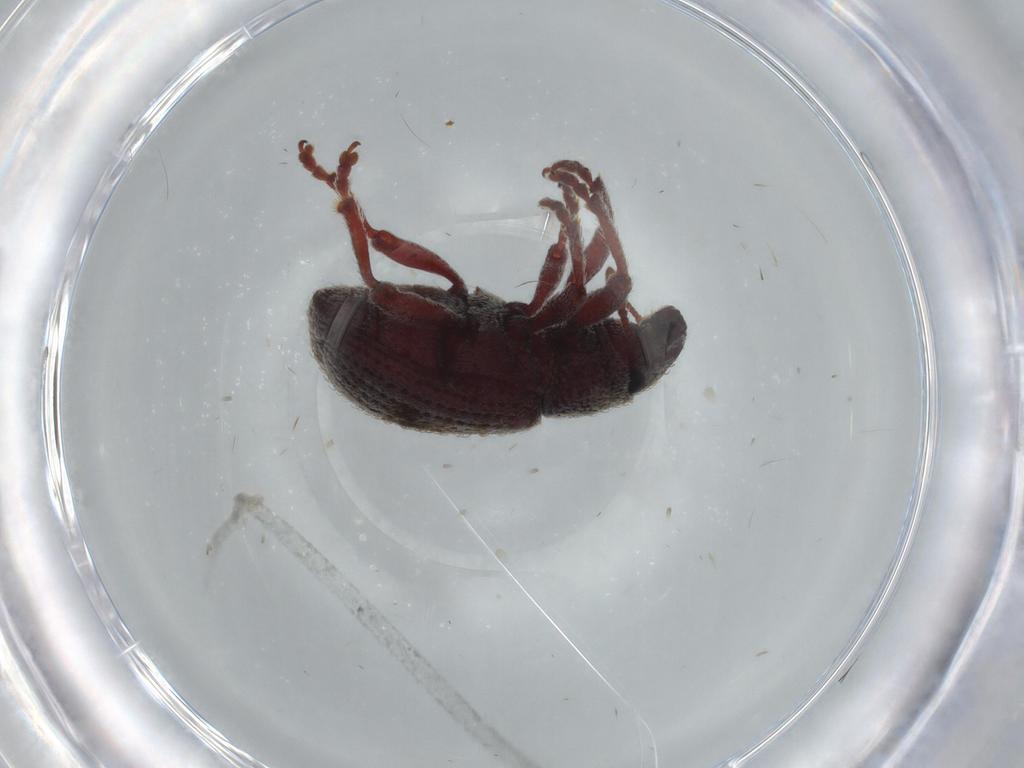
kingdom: Animalia
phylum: Arthropoda
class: Insecta
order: Coleoptera
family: Curculionidae
